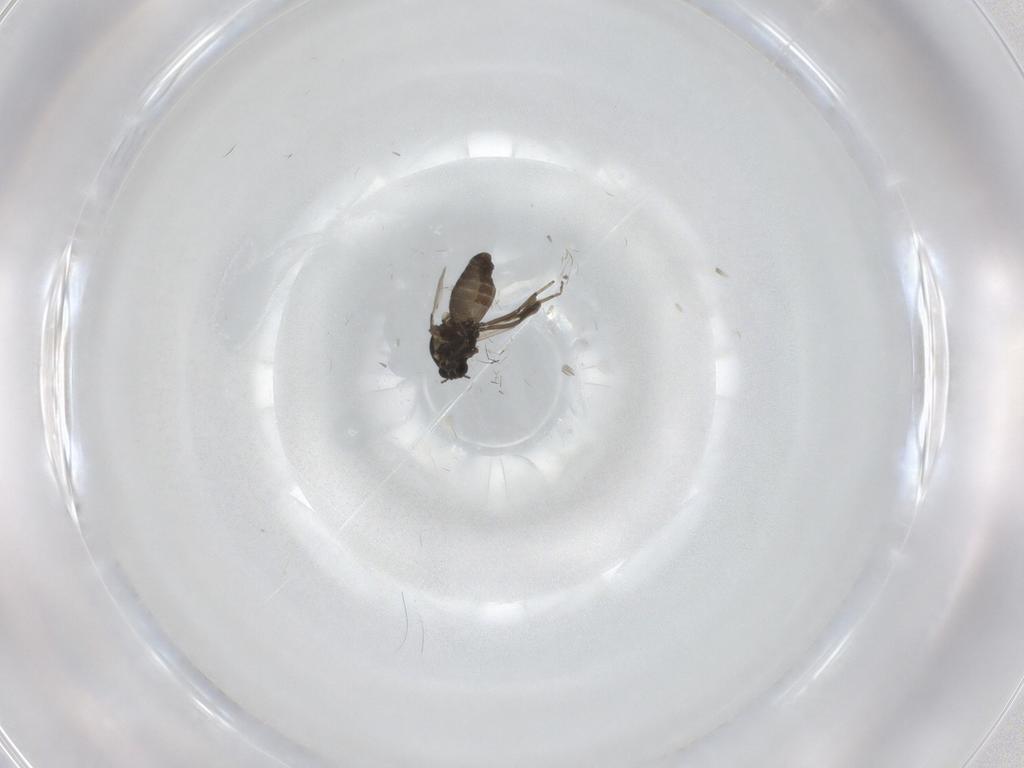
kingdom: Animalia
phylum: Arthropoda
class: Insecta
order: Diptera
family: Ceratopogonidae
